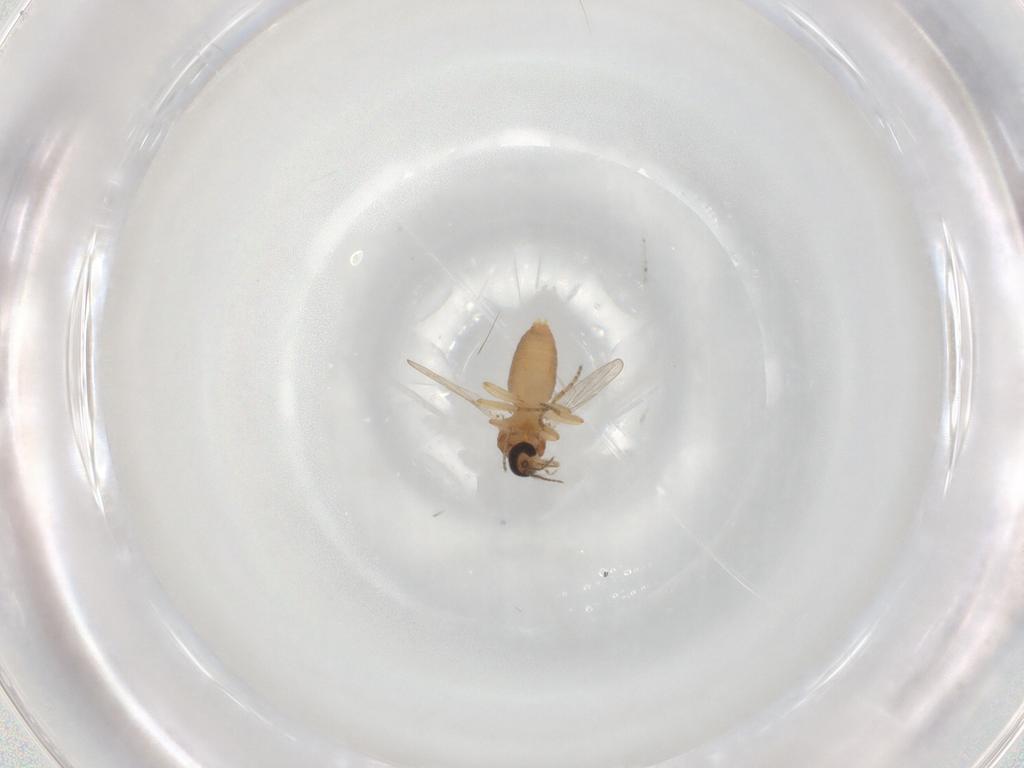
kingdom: Animalia
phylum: Arthropoda
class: Insecta
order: Diptera
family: Ceratopogonidae
